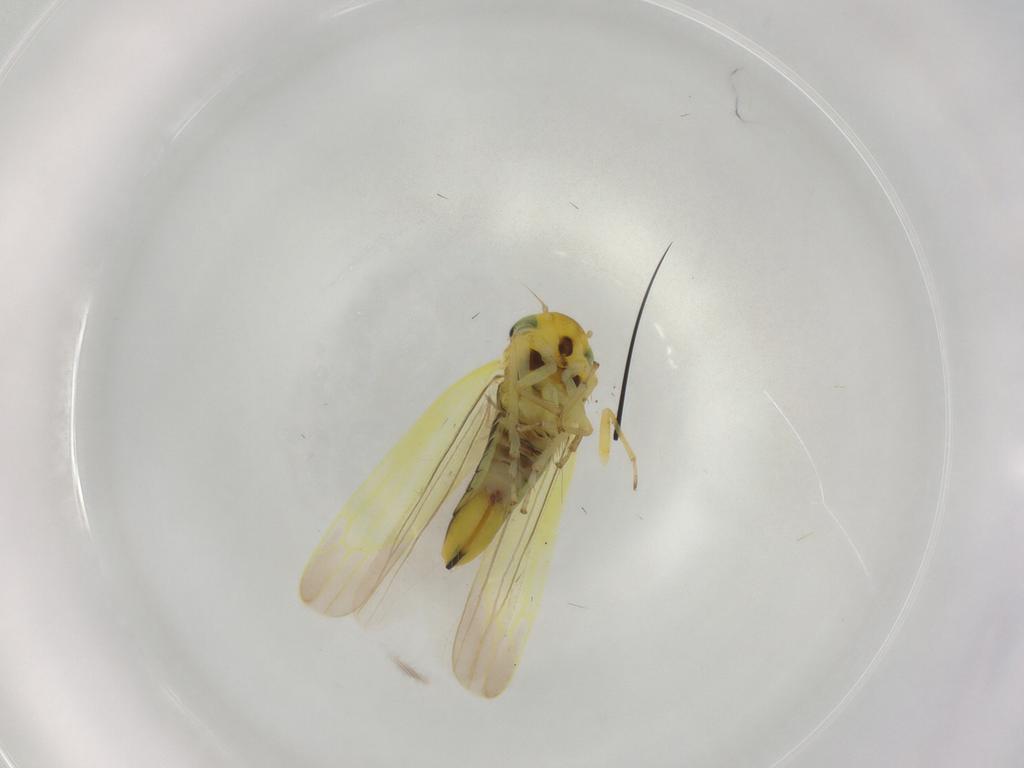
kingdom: Animalia
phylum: Arthropoda
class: Insecta
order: Hemiptera
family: Cicadellidae
